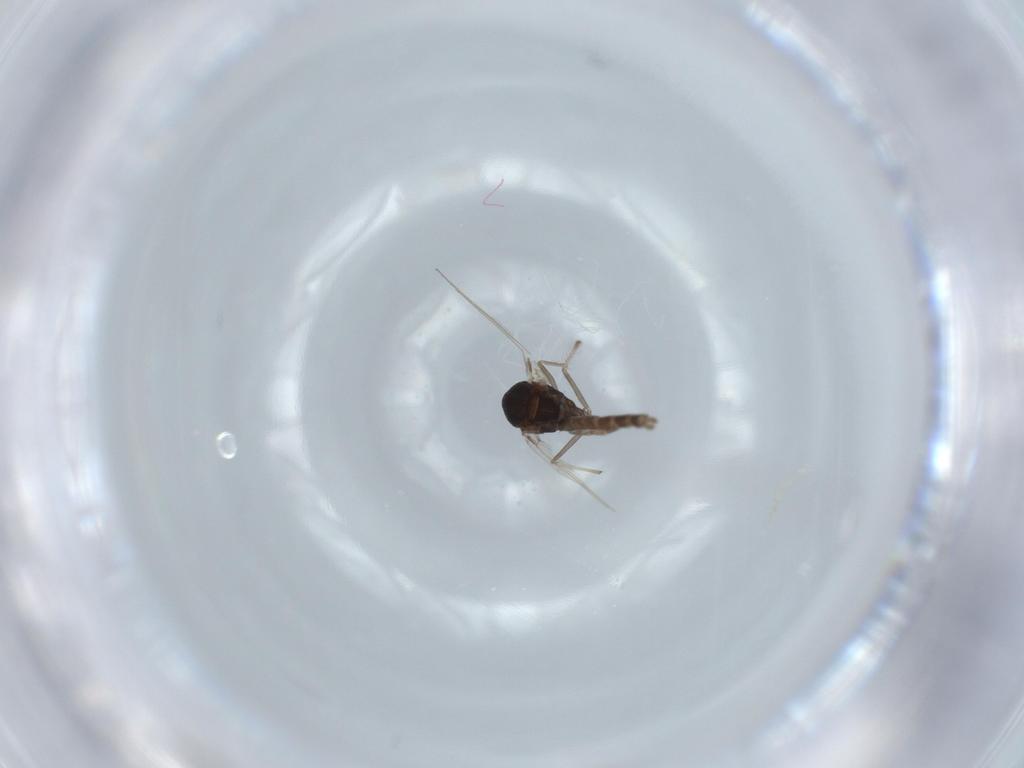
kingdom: Animalia
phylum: Arthropoda
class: Insecta
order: Diptera
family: Chironomidae
